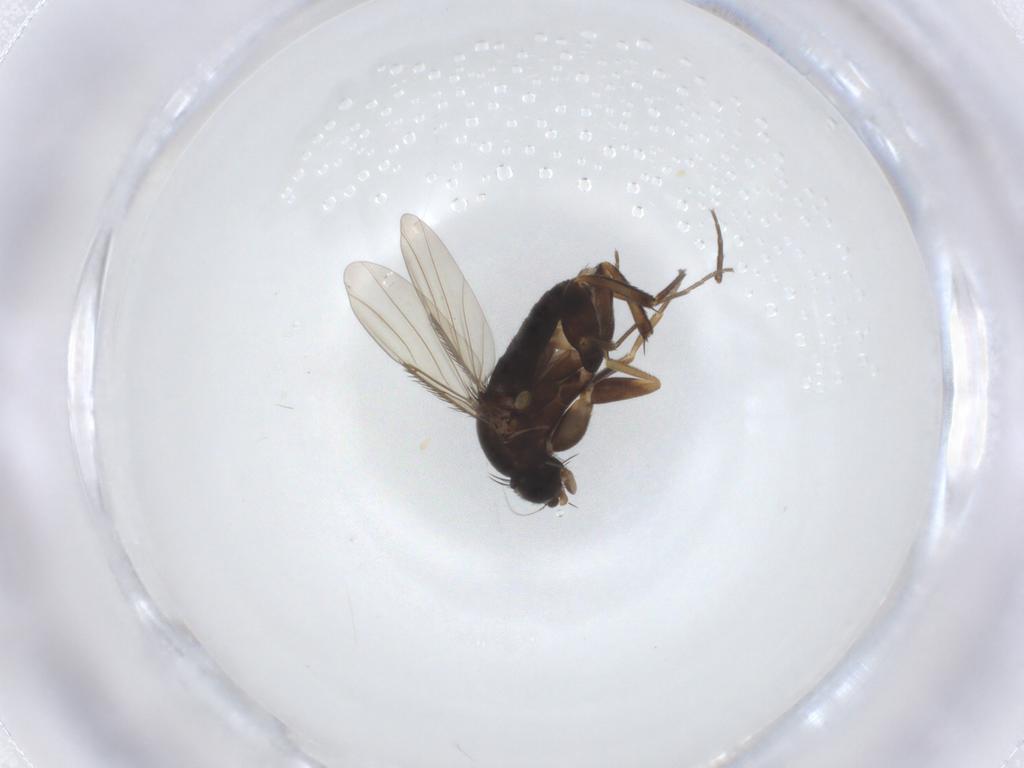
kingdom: Animalia
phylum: Arthropoda
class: Insecta
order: Diptera
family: Phoridae
